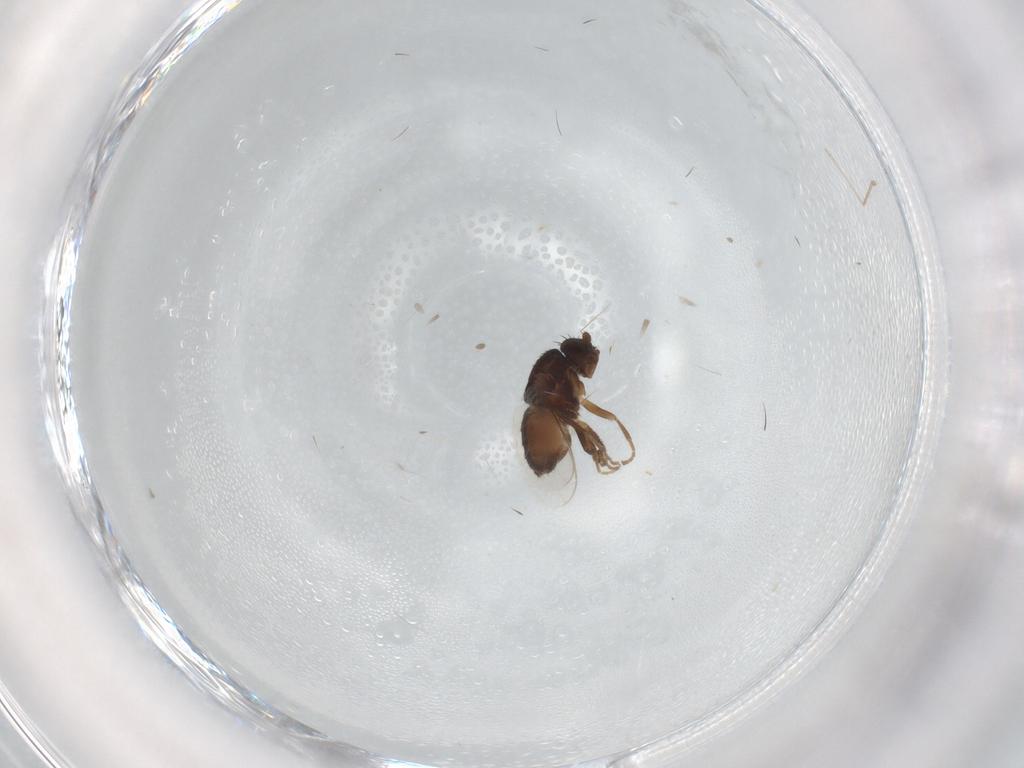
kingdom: Animalia
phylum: Arthropoda
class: Insecta
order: Diptera
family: Sphaeroceridae
